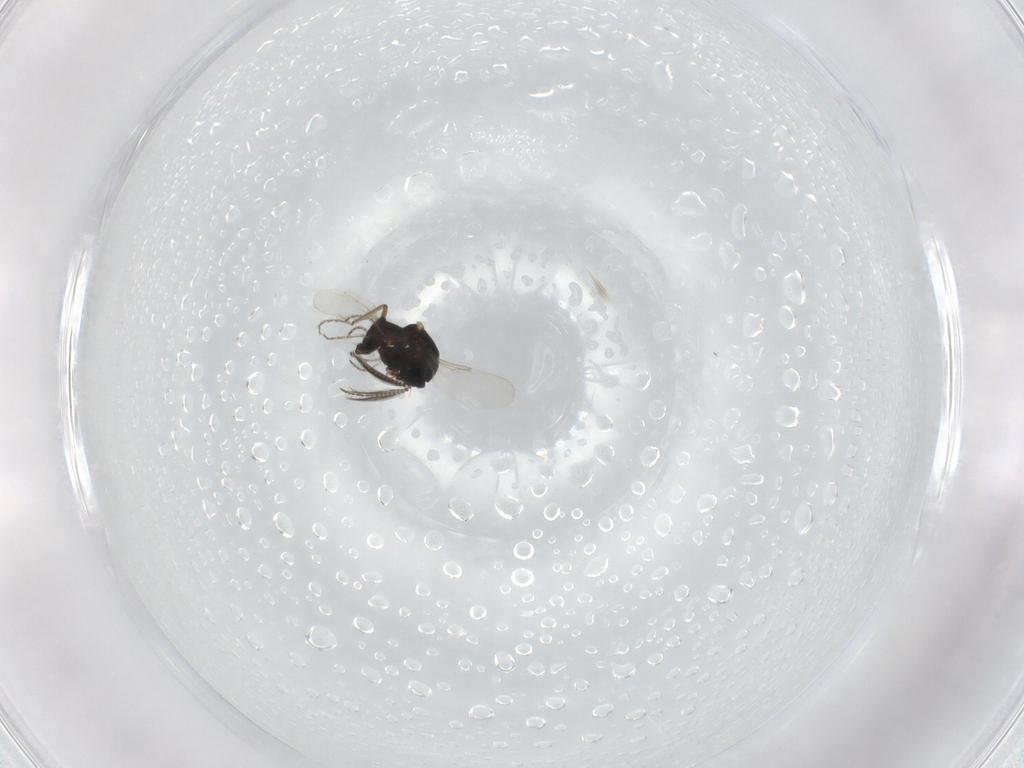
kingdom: Animalia
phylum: Arthropoda
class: Insecta
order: Diptera
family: Ceratopogonidae
